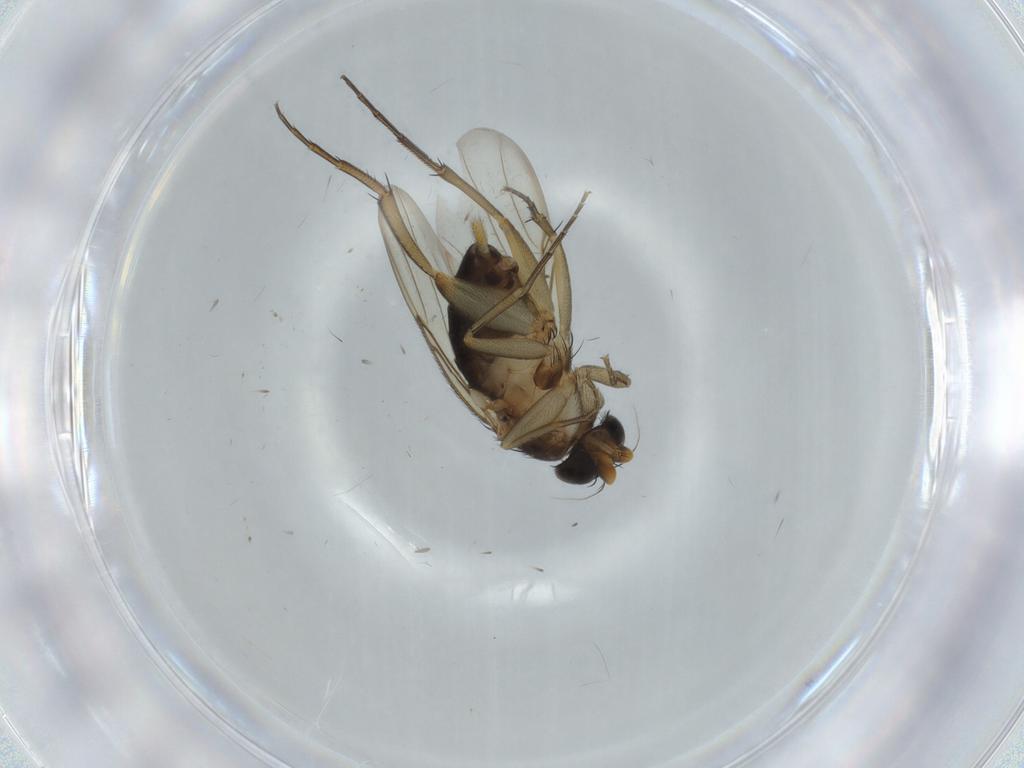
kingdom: Animalia
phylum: Arthropoda
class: Insecta
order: Diptera
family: Phoridae
